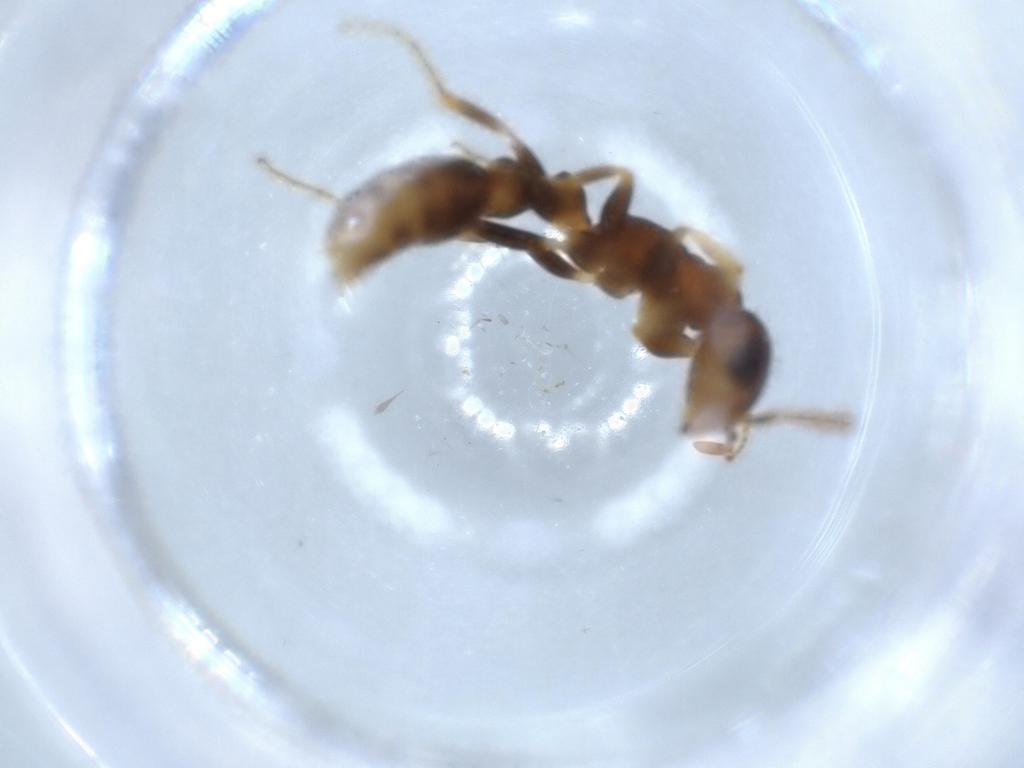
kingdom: Animalia
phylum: Arthropoda
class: Insecta
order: Hymenoptera
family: Formicidae
